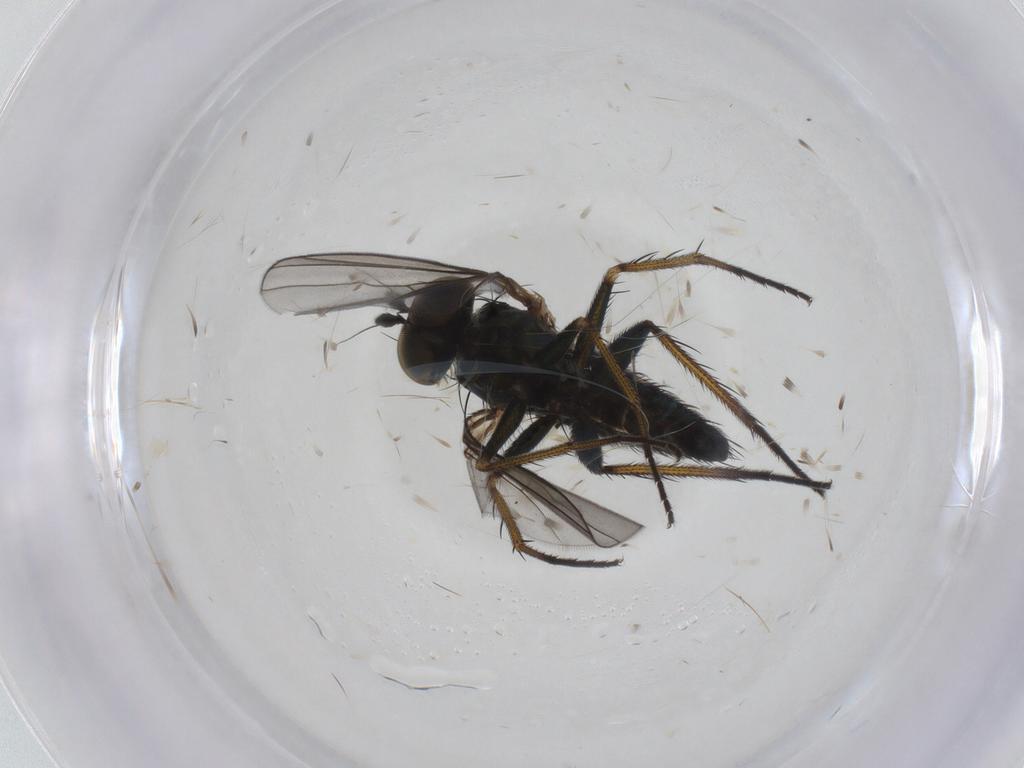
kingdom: Animalia
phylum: Arthropoda
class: Insecta
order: Diptera
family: Dolichopodidae
